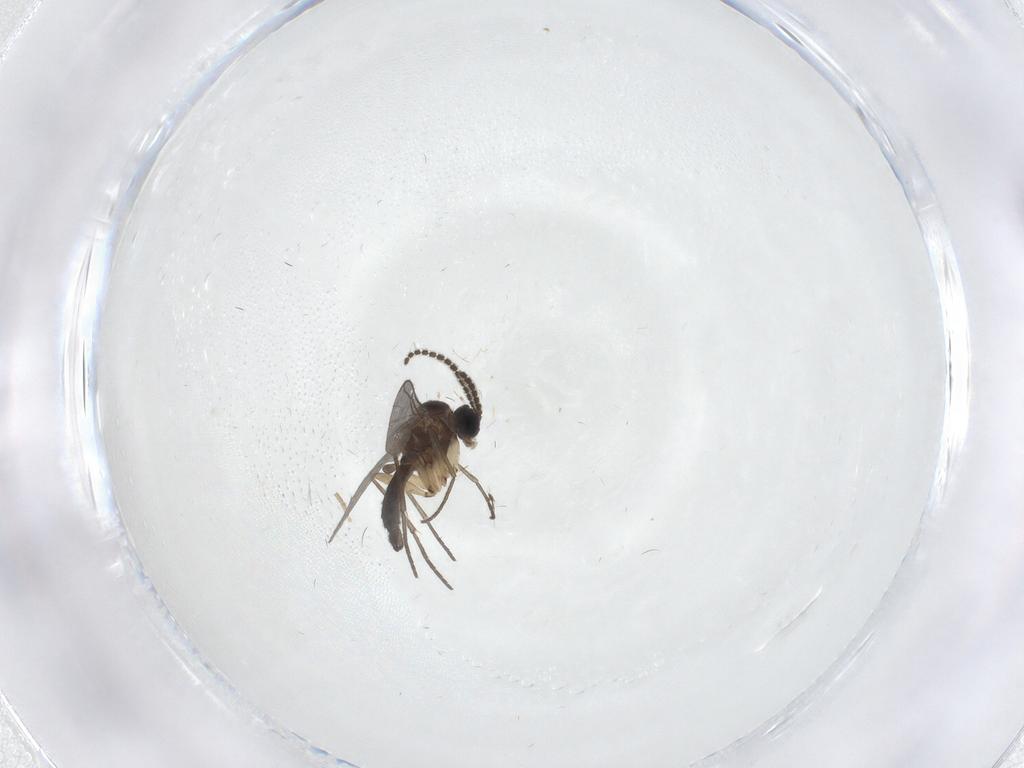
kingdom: Animalia
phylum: Arthropoda
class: Insecta
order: Diptera
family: Sciaridae
